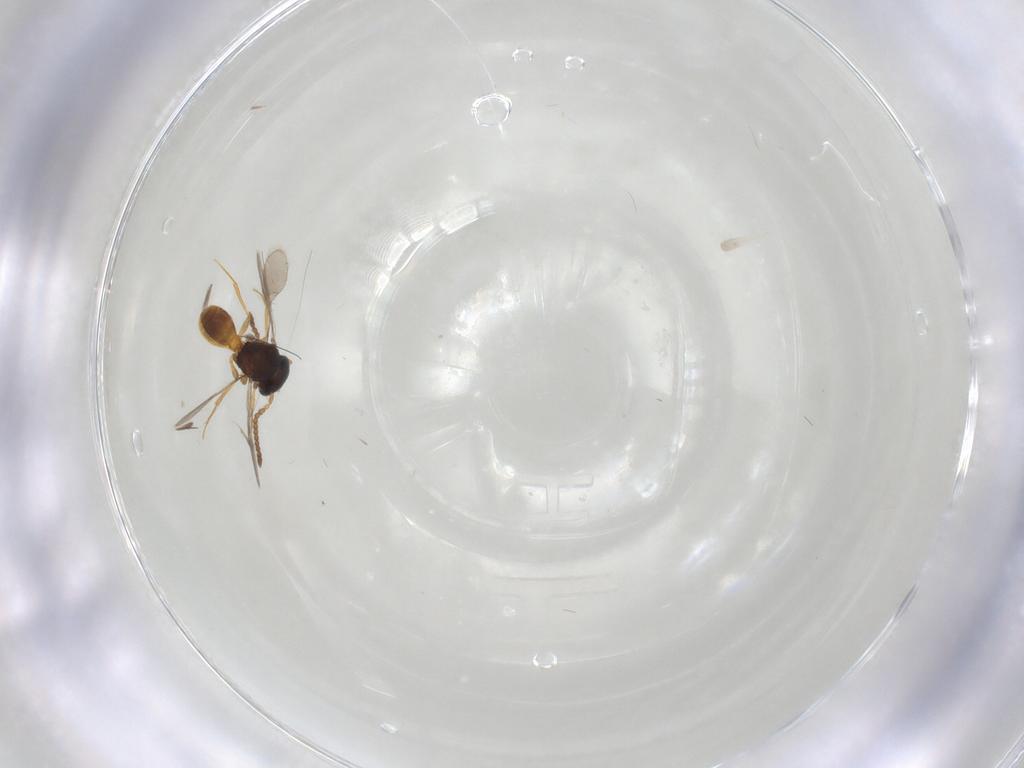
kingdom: Animalia
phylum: Arthropoda
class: Insecta
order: Hymenoptera
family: Scelionidae
